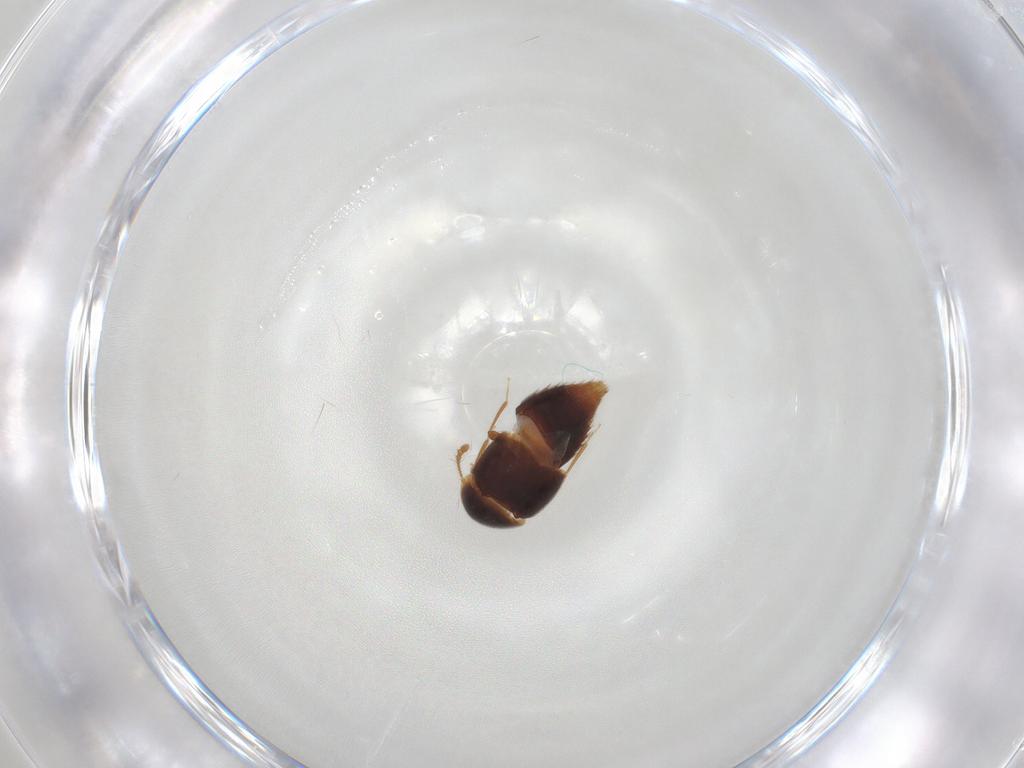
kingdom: Animalia
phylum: Arthropoda
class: Insecta
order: Coleoptera
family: Staphylinidae
